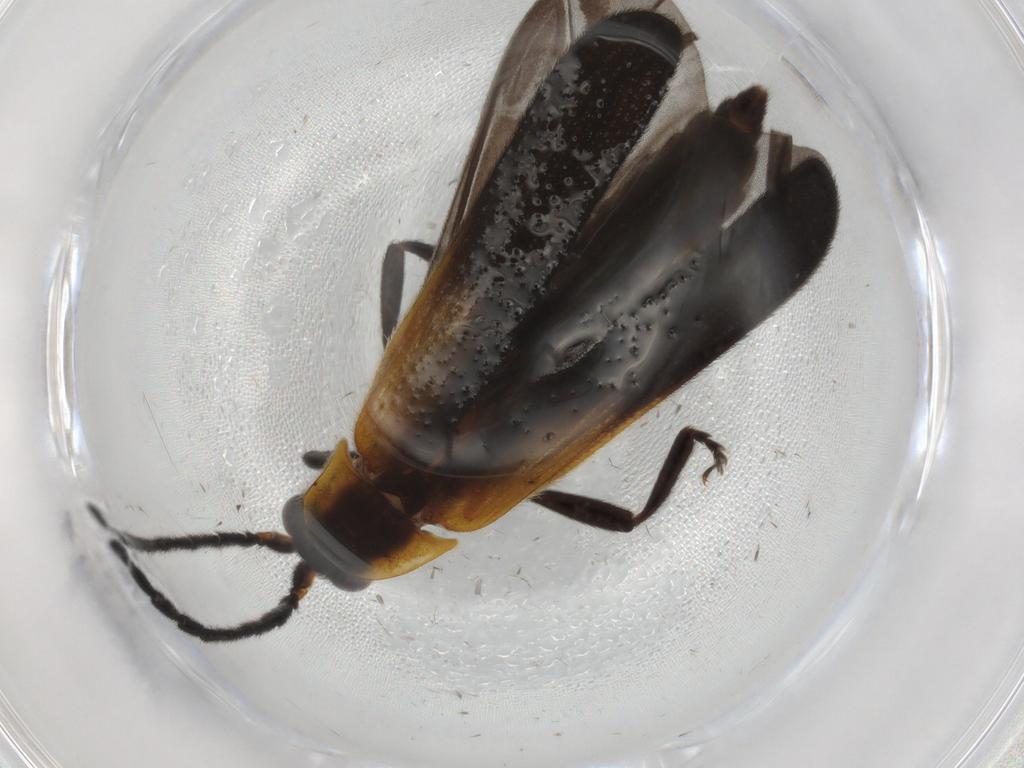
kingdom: Animalia
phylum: Arthropoda
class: Insecta
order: Coleoptera
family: Lycidae
